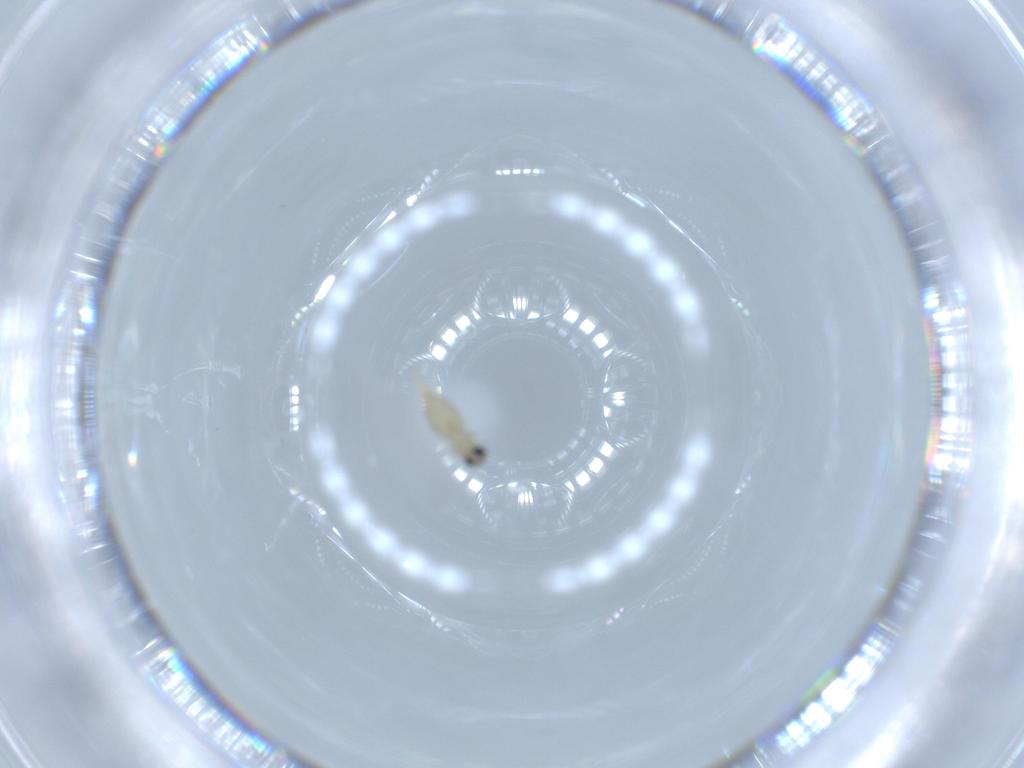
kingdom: Animalia
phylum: Arthropoda
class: Insecta
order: Diptera
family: Cecidomyiidae
